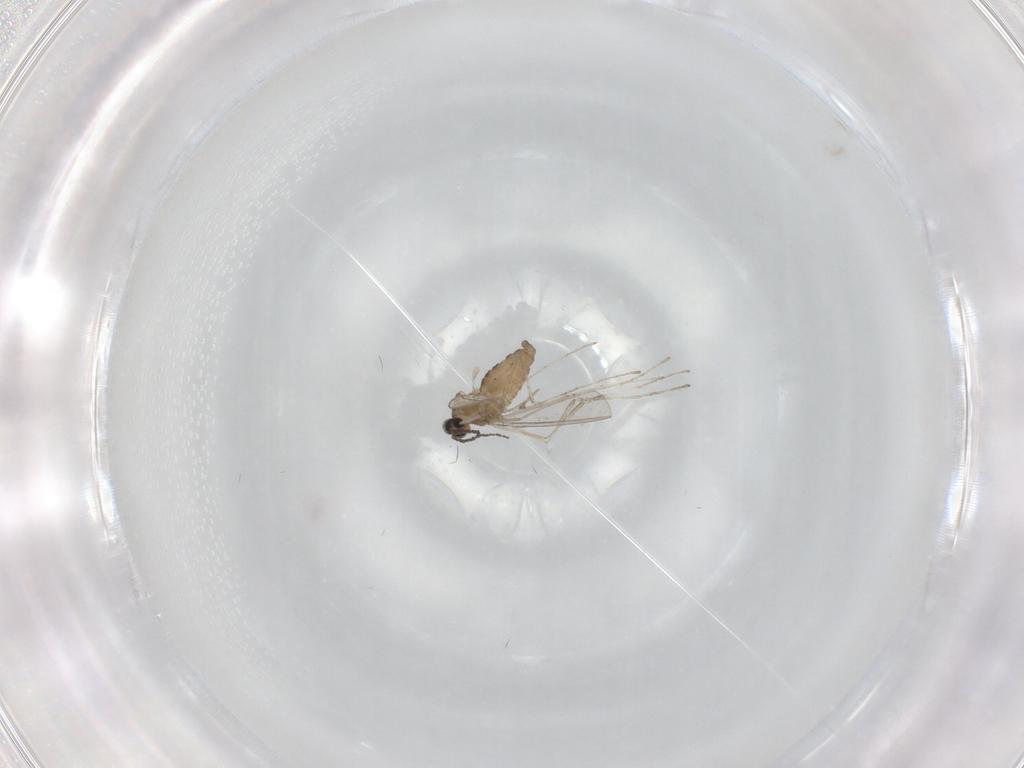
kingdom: Animalia
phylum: Arthropoda
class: Insecta
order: Diptera
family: Cecidomyiidae
